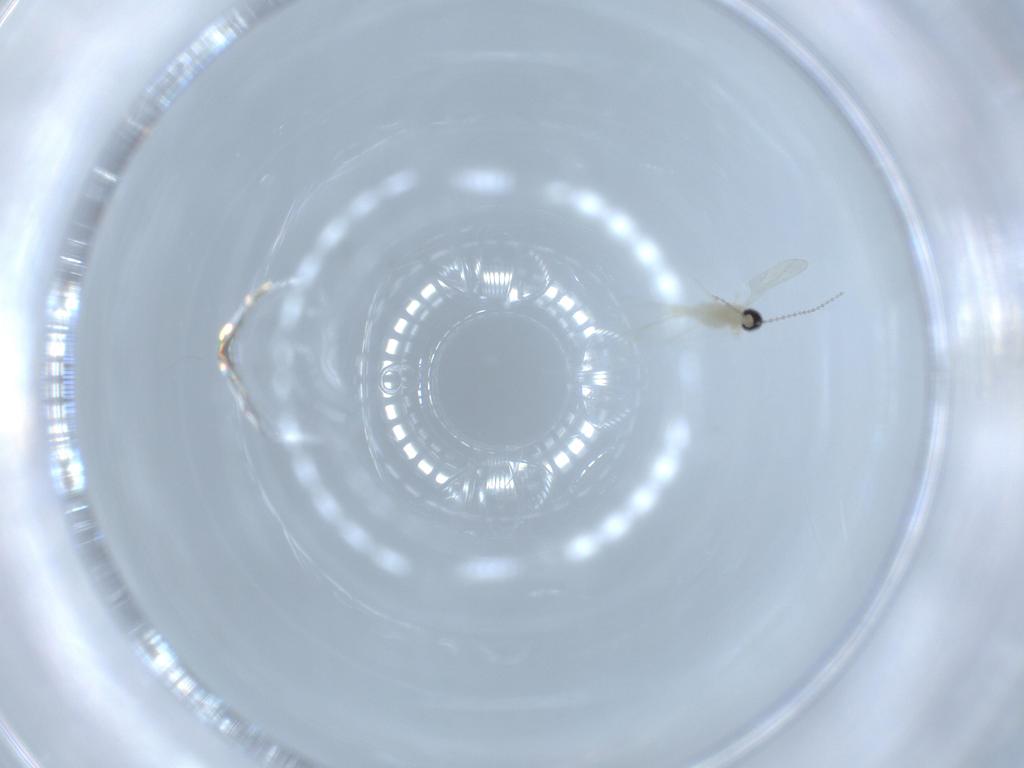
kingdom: Animalia
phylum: Arthropoda
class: Insecta
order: Diptera
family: Cecidomyiidae
